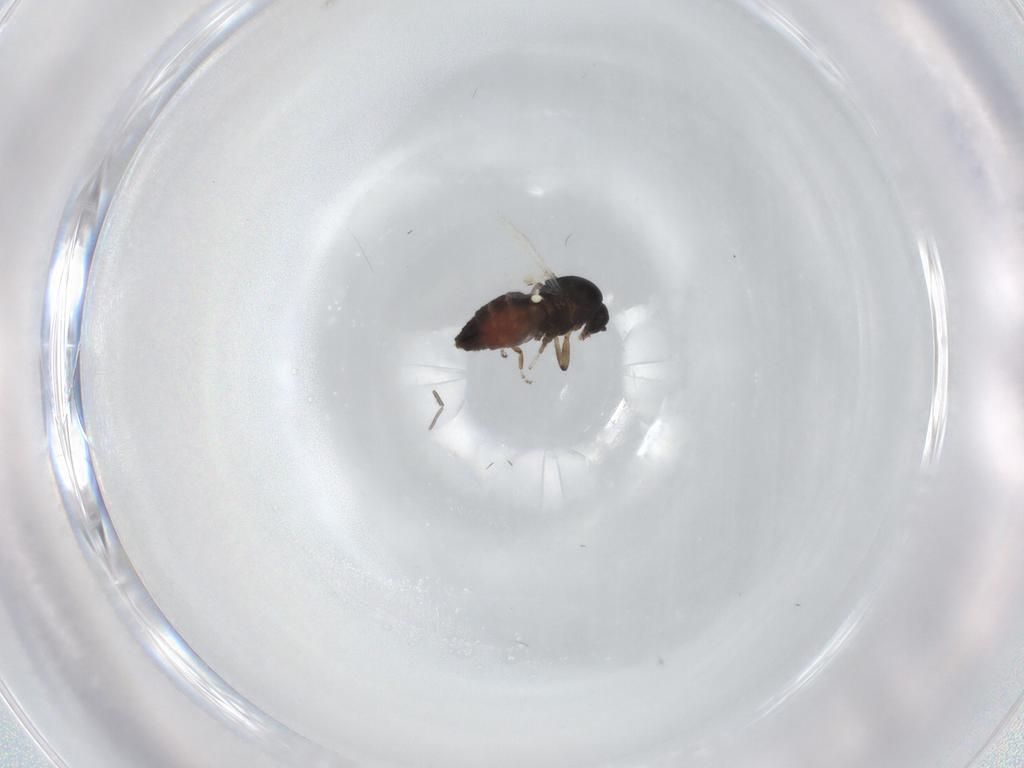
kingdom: Animalia
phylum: Arthropoda
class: Insecta
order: Diptera
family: Ceratopogonidae
